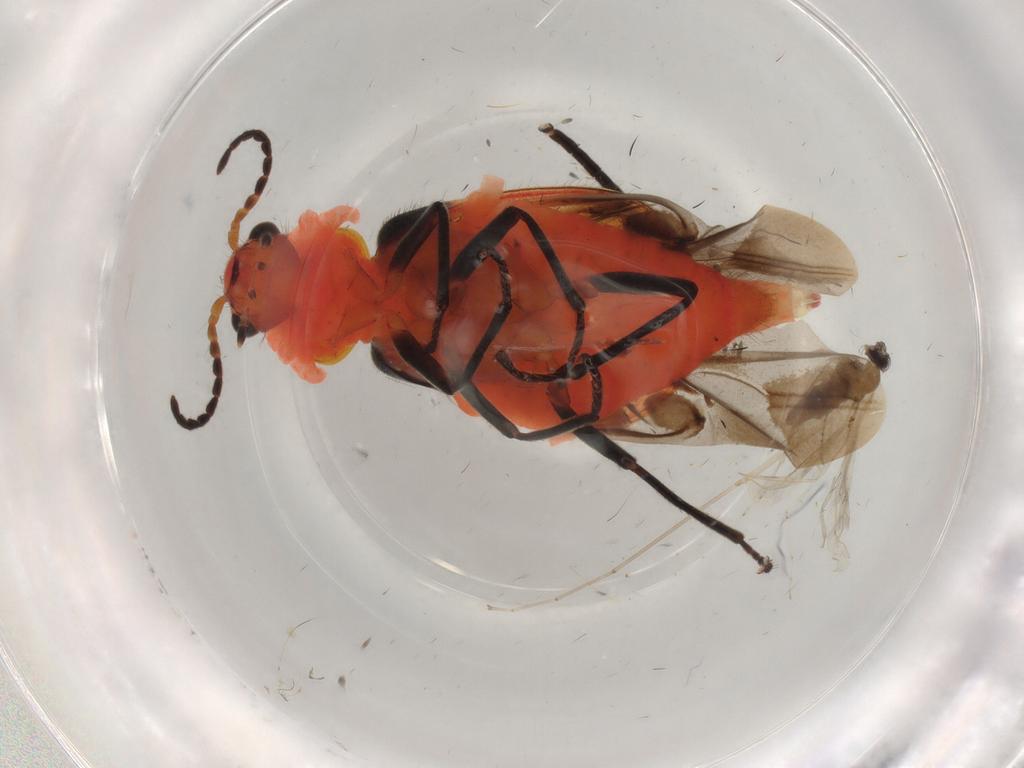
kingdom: Animalia
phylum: Arthropoda
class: Insecta
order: Coleoptera
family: Melyridae
